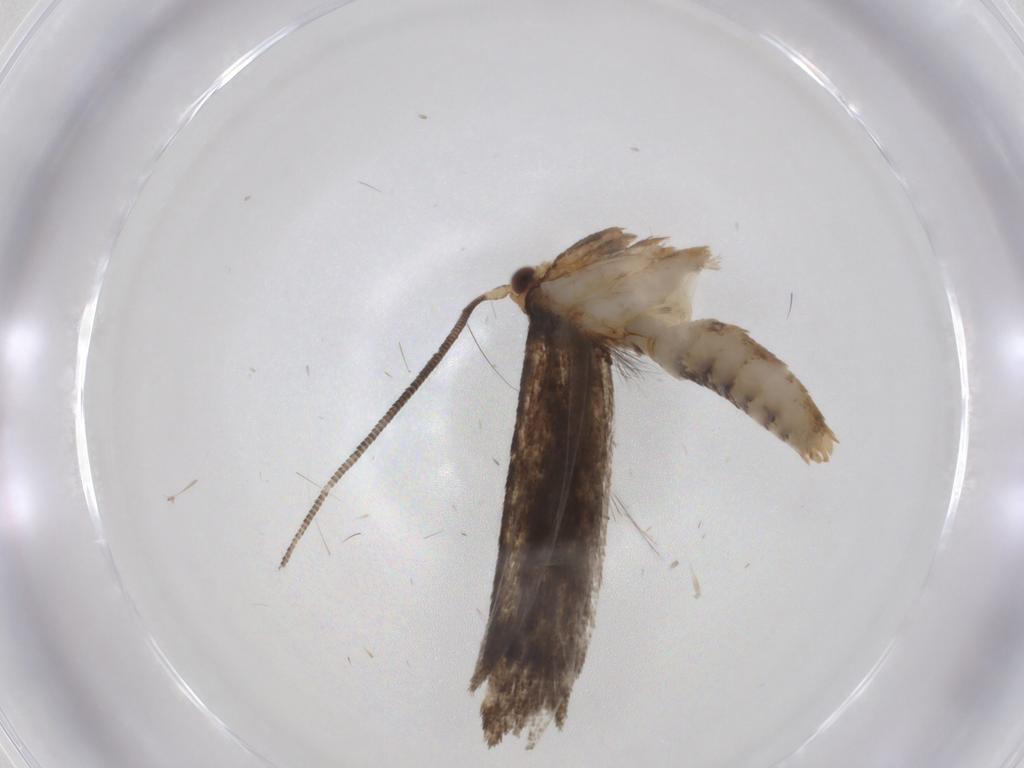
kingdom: Animalia
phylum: Arthropoda
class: Insecta
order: Lepidoptera
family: Tineidae
